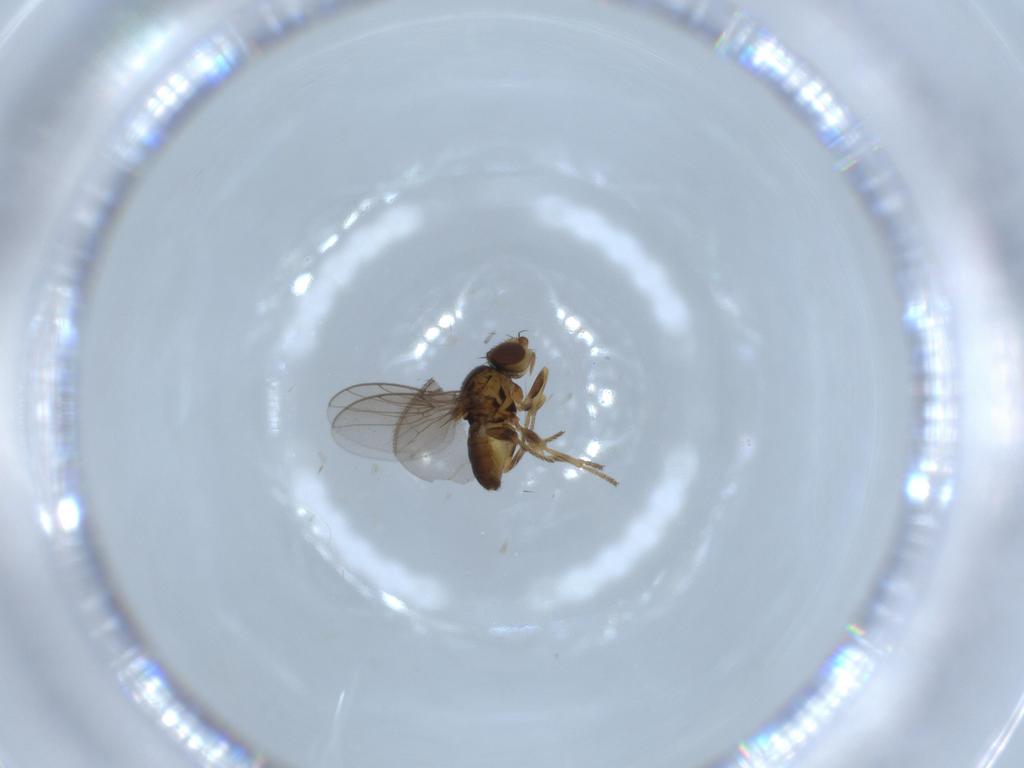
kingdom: Animalia
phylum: Arthropoda
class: Insecta
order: Diptera
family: Chloropidae
